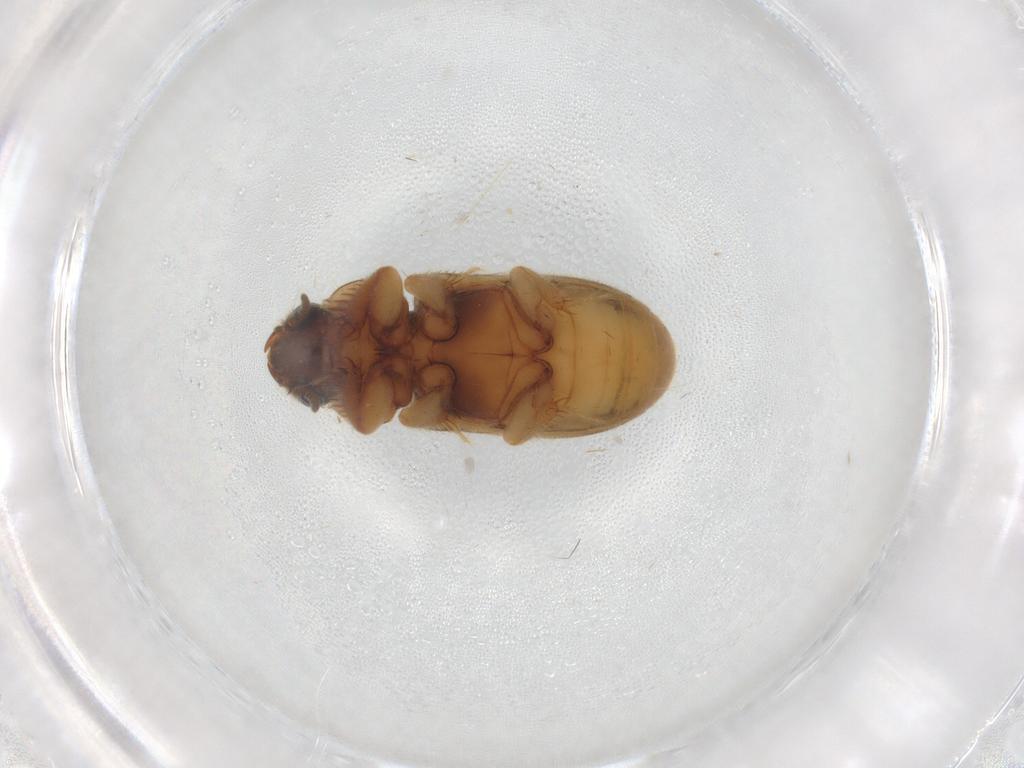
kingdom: Animalia
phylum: Arthropoda
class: Insecta
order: Coleoptera
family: Heteroceridae
